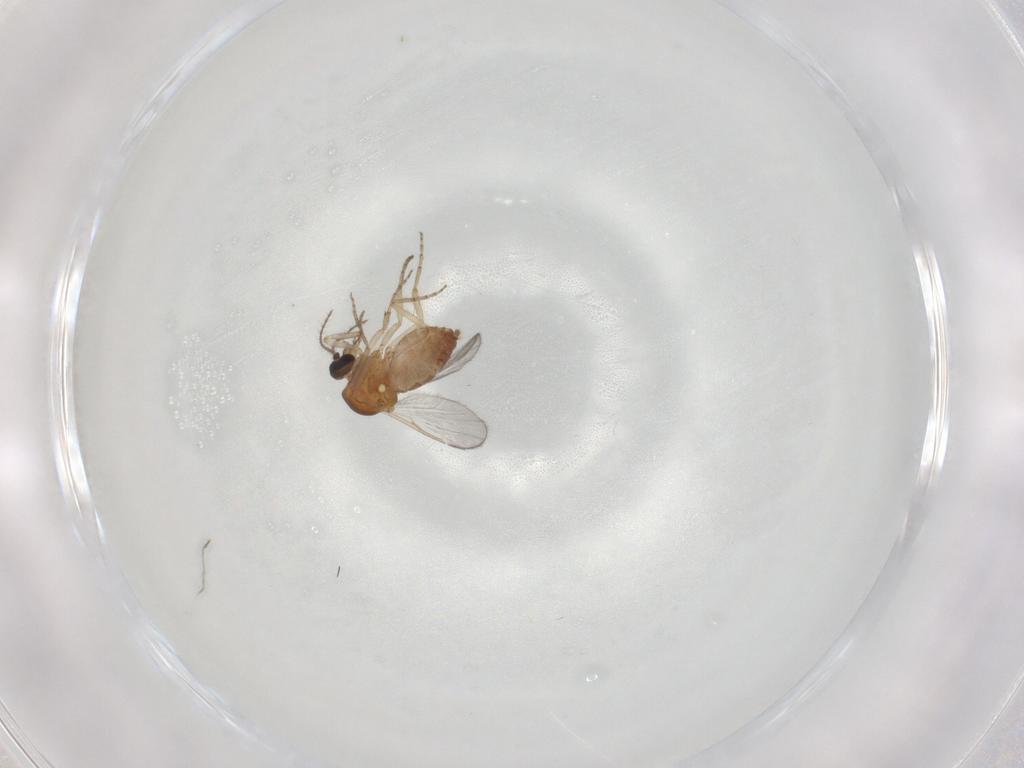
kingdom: Animalia
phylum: Arthropoda
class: Insecta
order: Diptera
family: Ceratopogonidae
